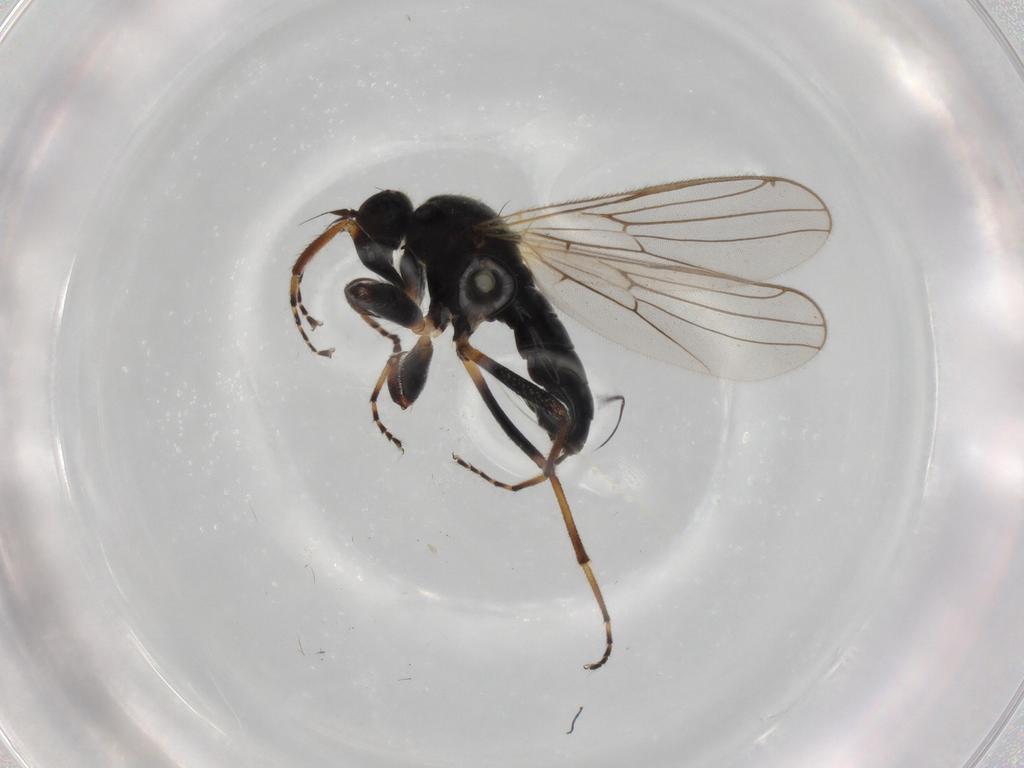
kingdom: Animalia
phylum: Arthropoda
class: Insecta
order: Diptera
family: Hybotidae
